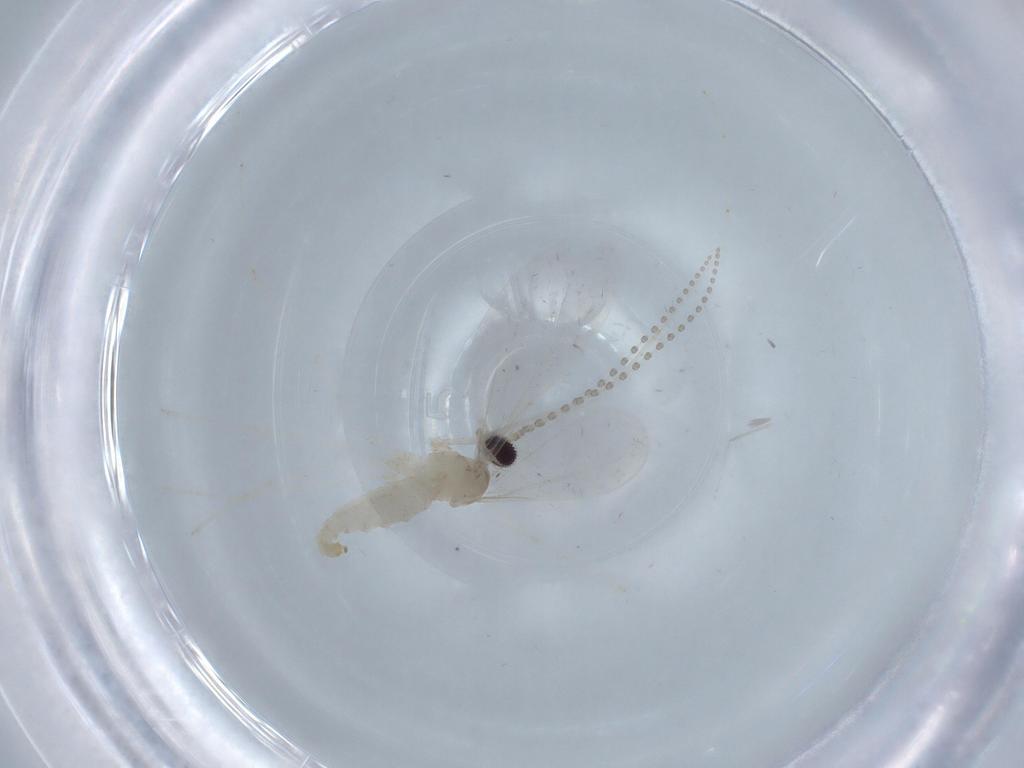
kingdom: Animalia
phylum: Arthropoda
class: Insecta
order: Diptera
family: Cecidomyiidae
